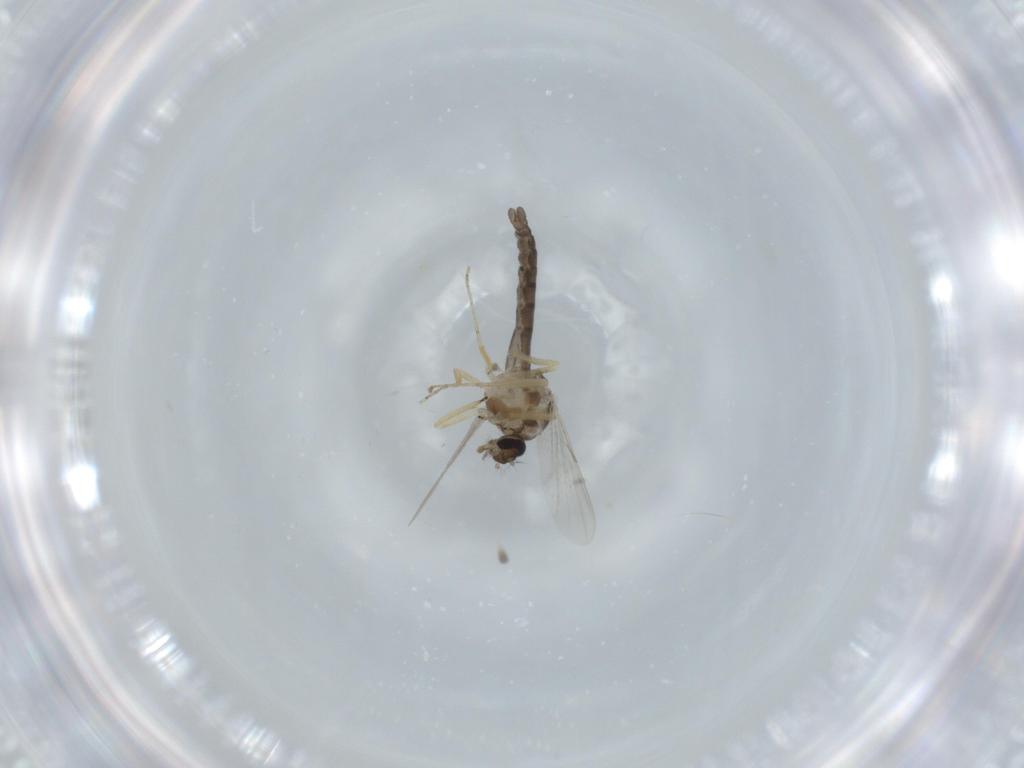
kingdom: Animalia
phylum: Arthropoda
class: Insecta
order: Diptera
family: Ceratopogonidae
